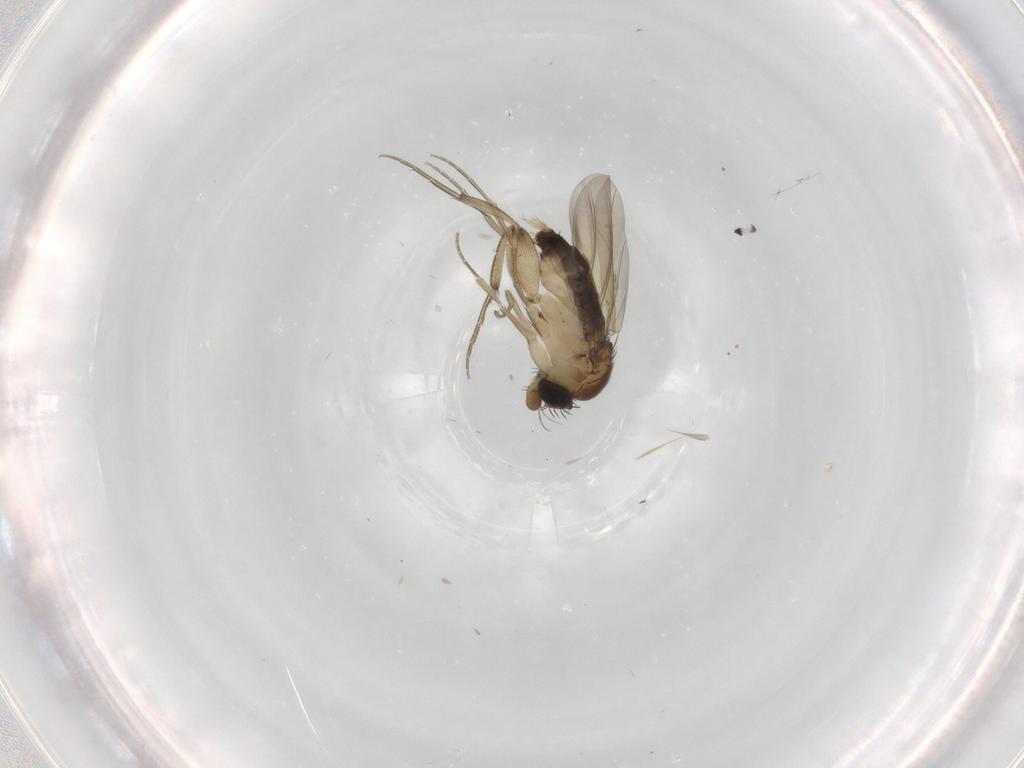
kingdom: Animalia
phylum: Arthropoda
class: Insecta
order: Diptera
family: Phoridae
